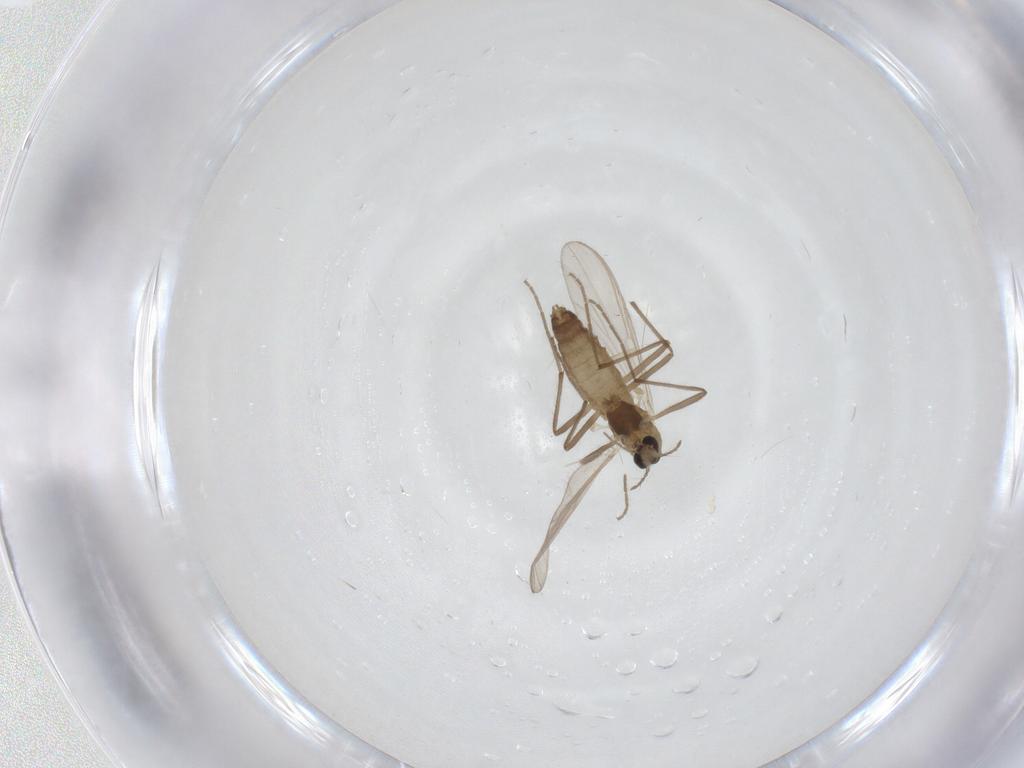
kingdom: Animalia
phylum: Arthropoda
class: Insecta
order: Diptera
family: Chironomidae
